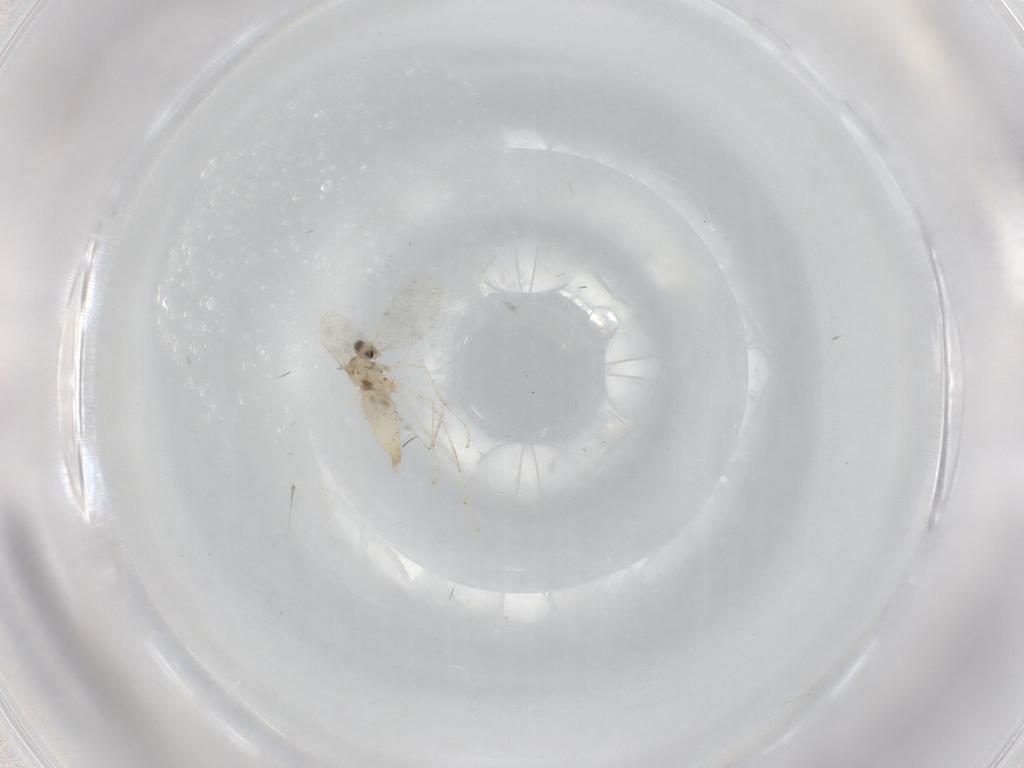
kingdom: Animalia
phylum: Arthropoda
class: Insecta
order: Diptera
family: Cecidomyiidae
